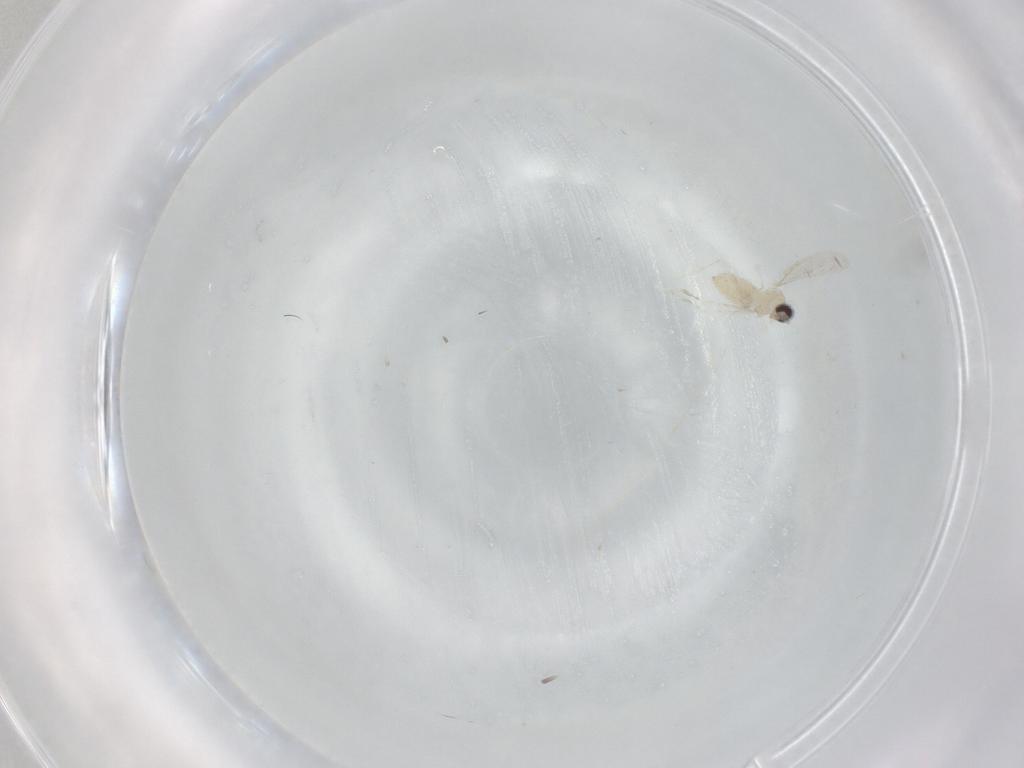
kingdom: Animalia
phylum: Arthropoda
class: Insecta
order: Diptera
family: Cecidomyiidae
